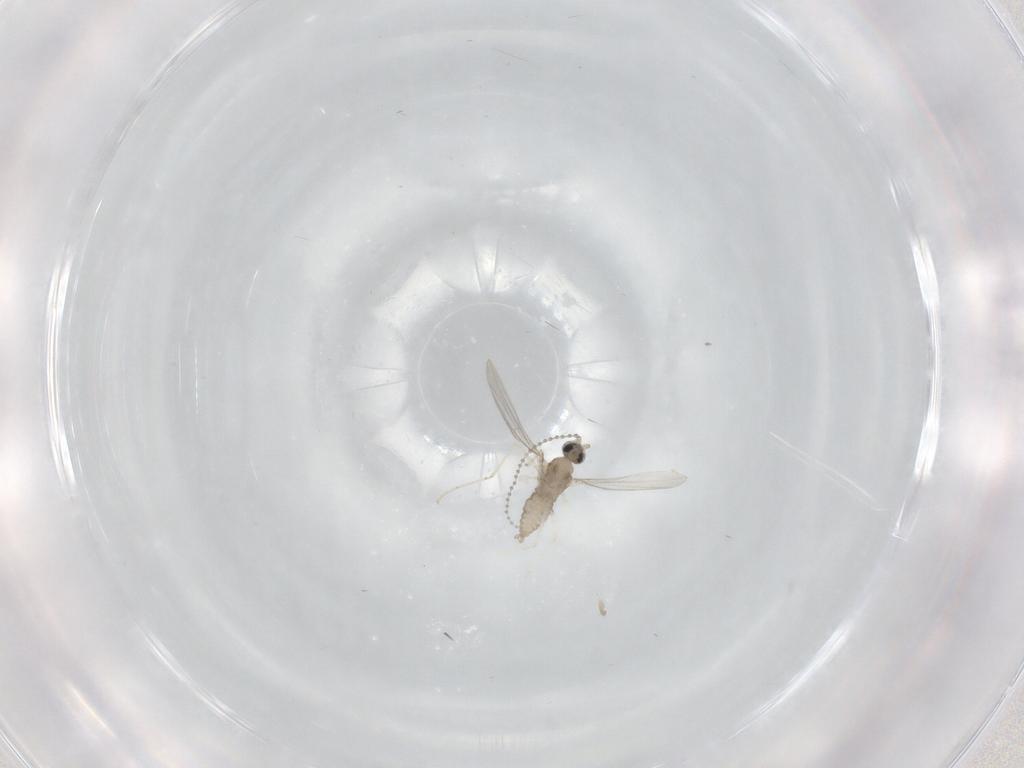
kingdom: Animalia
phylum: Arthropoda
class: Insecta
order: Diptera
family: Cecidomyiidae
